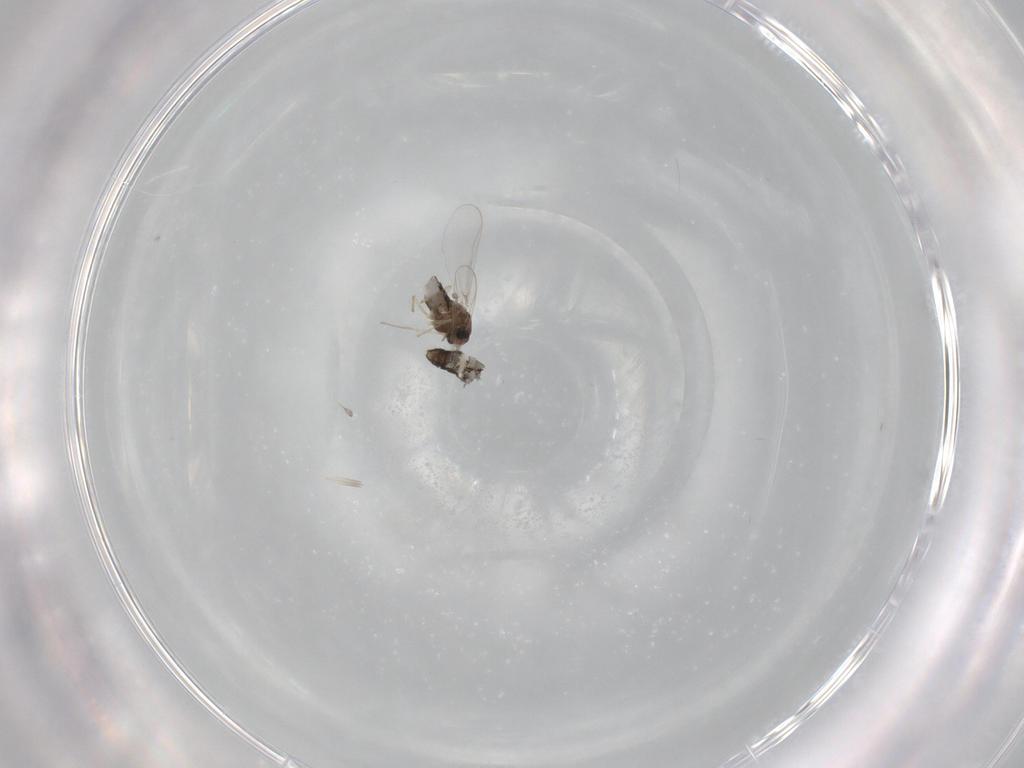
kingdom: Animalia
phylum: Arthropoda
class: Insecta
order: Diptera
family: Chironomidae
